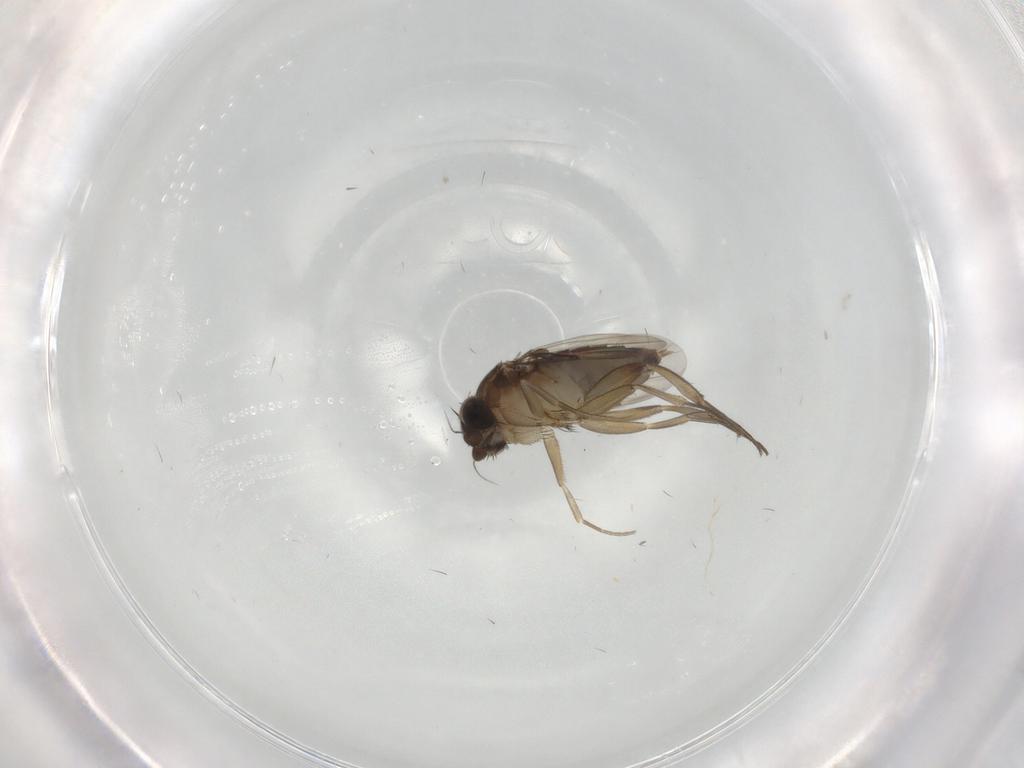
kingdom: Animalia
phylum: Arthropoda
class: Insecta
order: Diptera
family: Phoridae
